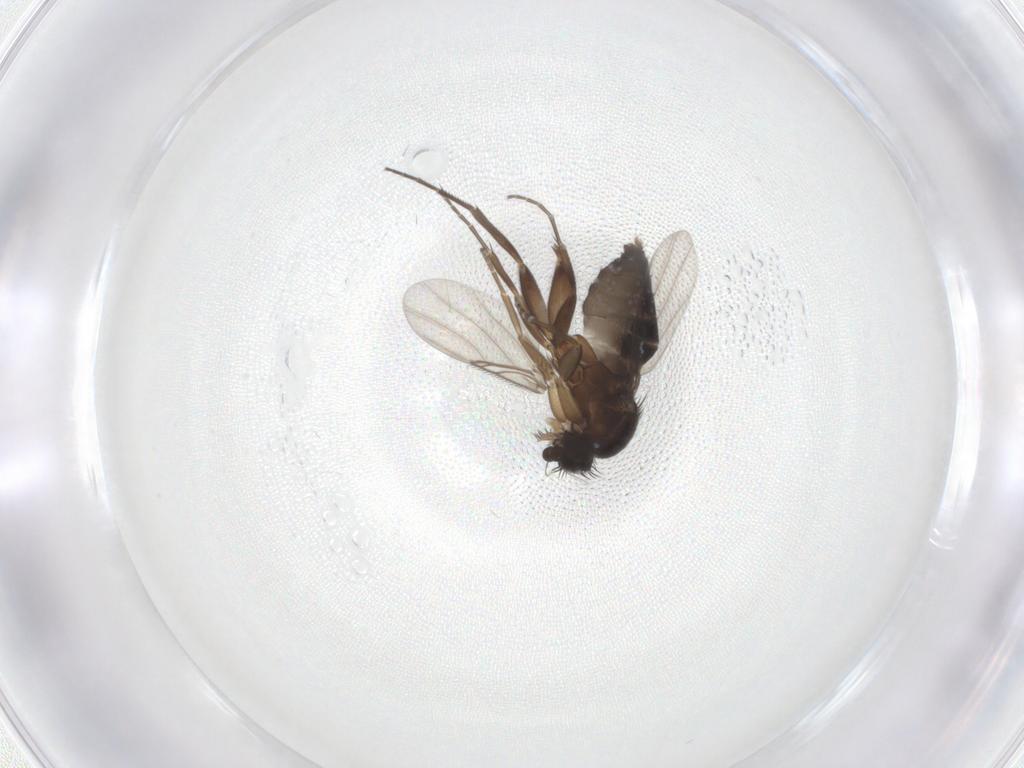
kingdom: Animalia
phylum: Arthropoda
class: Insecta
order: Diptera
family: Phoridae
